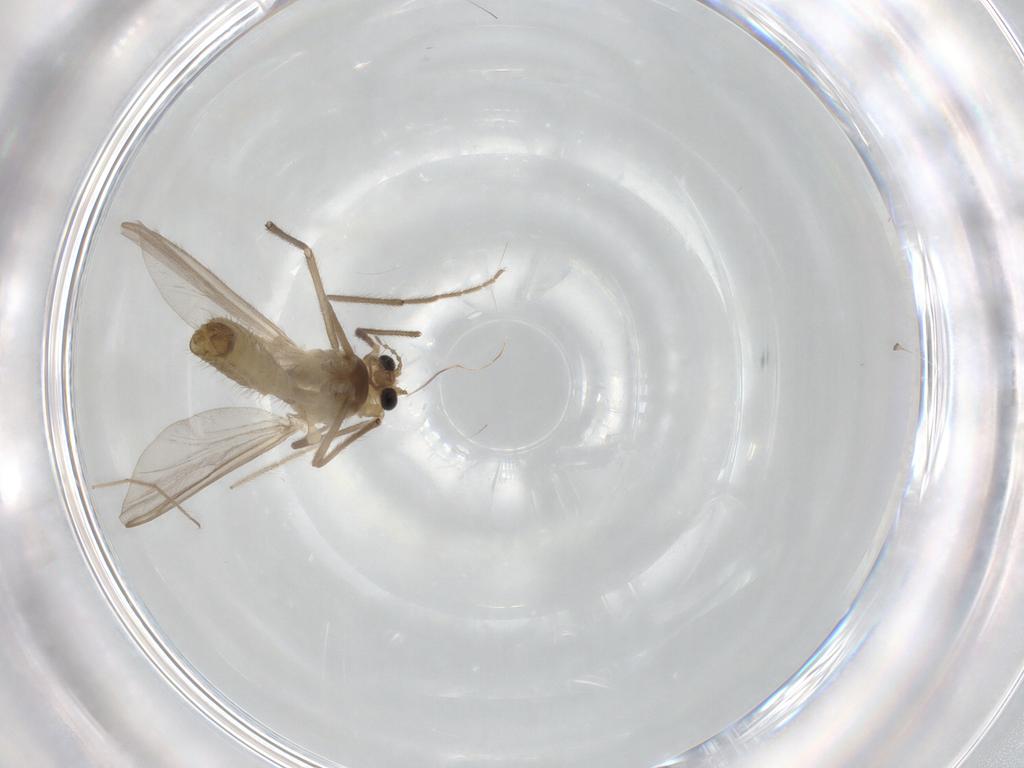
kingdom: Animalia
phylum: Arthropoda
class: Insecta
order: Diptera
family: Chironomidae
